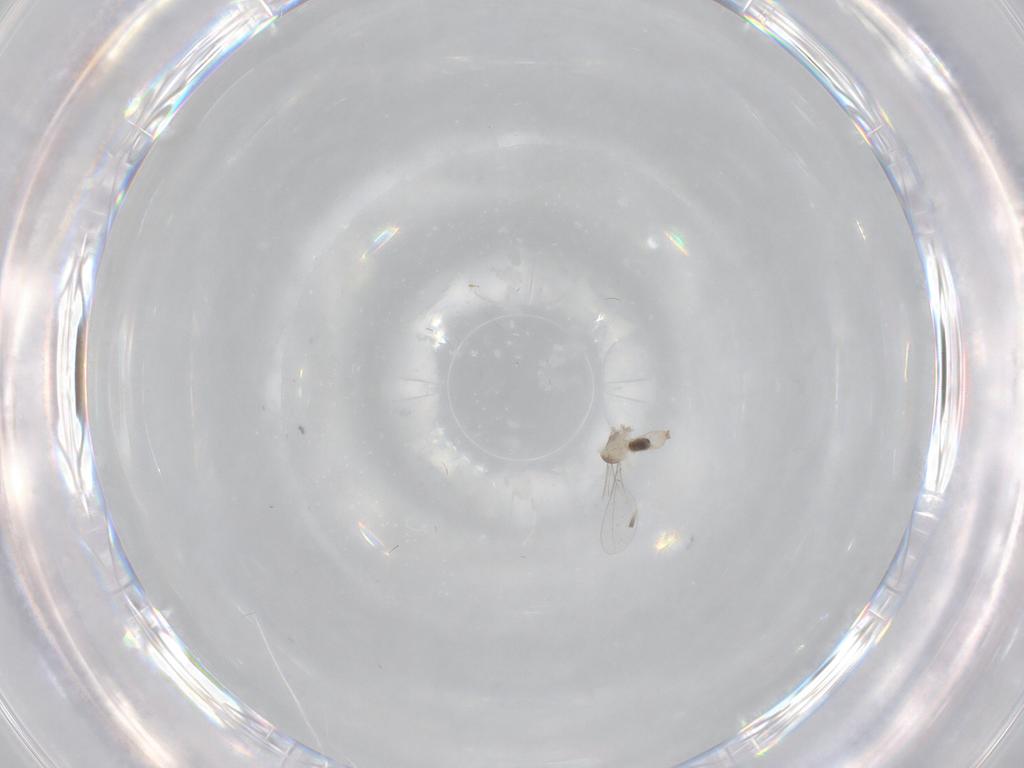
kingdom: Animalia
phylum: Arthropoda
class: Insecta
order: Diptera
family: Cecidomyiidae
